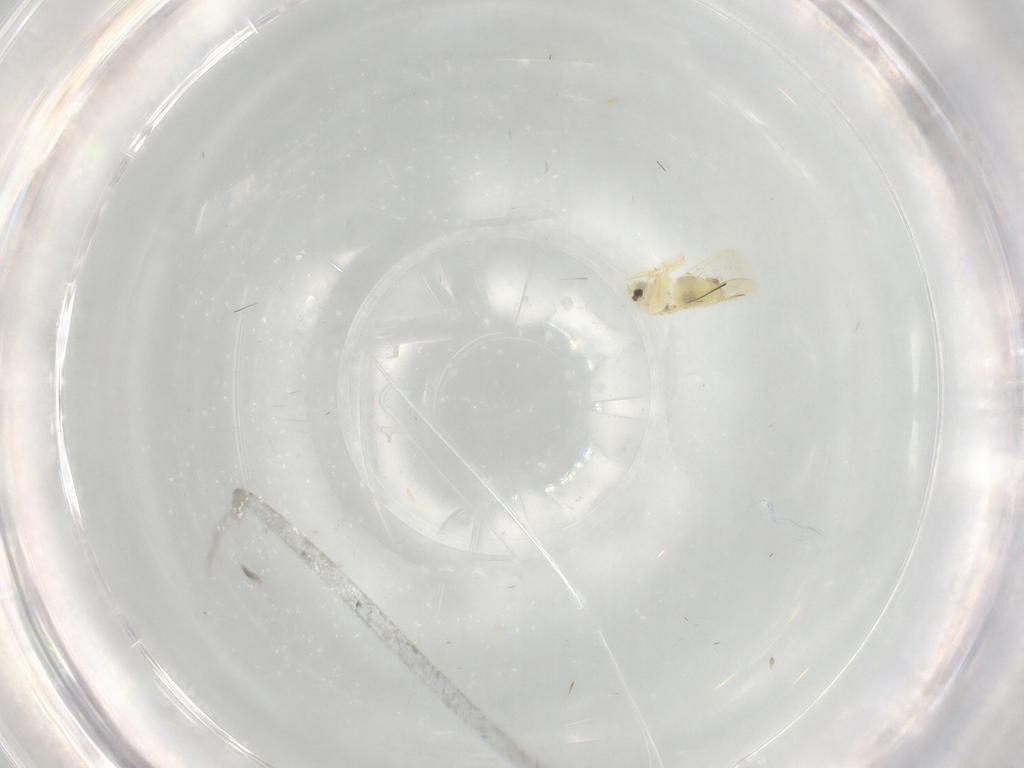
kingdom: Animalia
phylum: Arthropoda
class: Insecta
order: Hemiptera
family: Aleyrodidae
